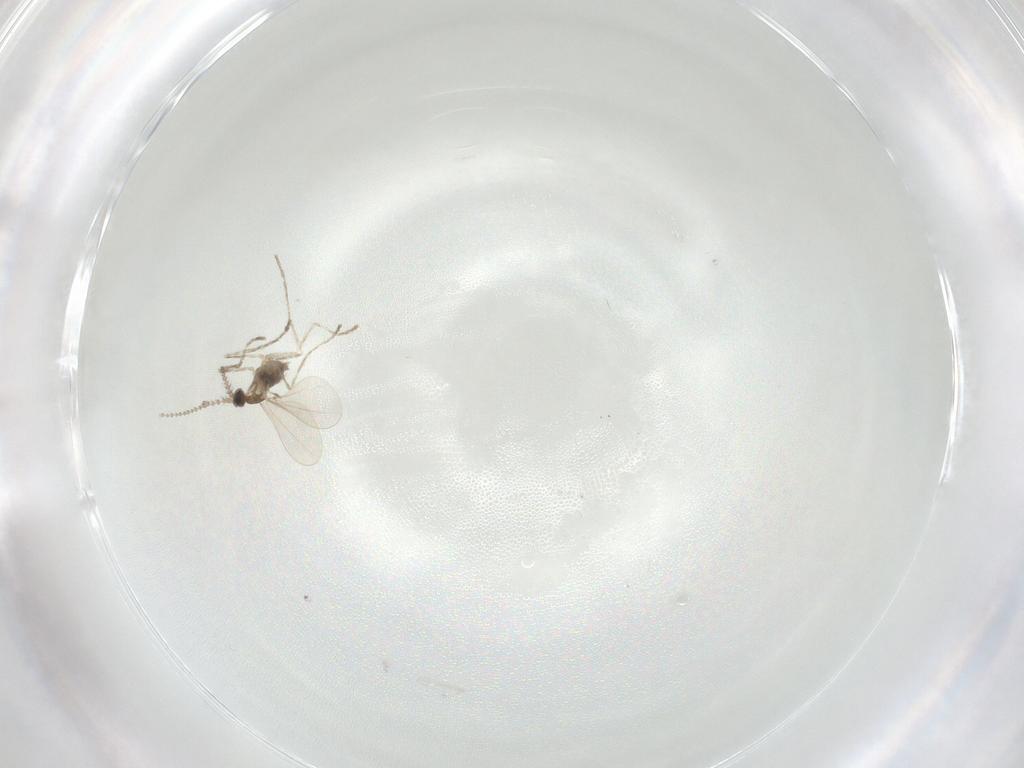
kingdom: Animalia
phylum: Arthropoda
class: Insecta
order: Diptera
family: Cecidomyiidae
